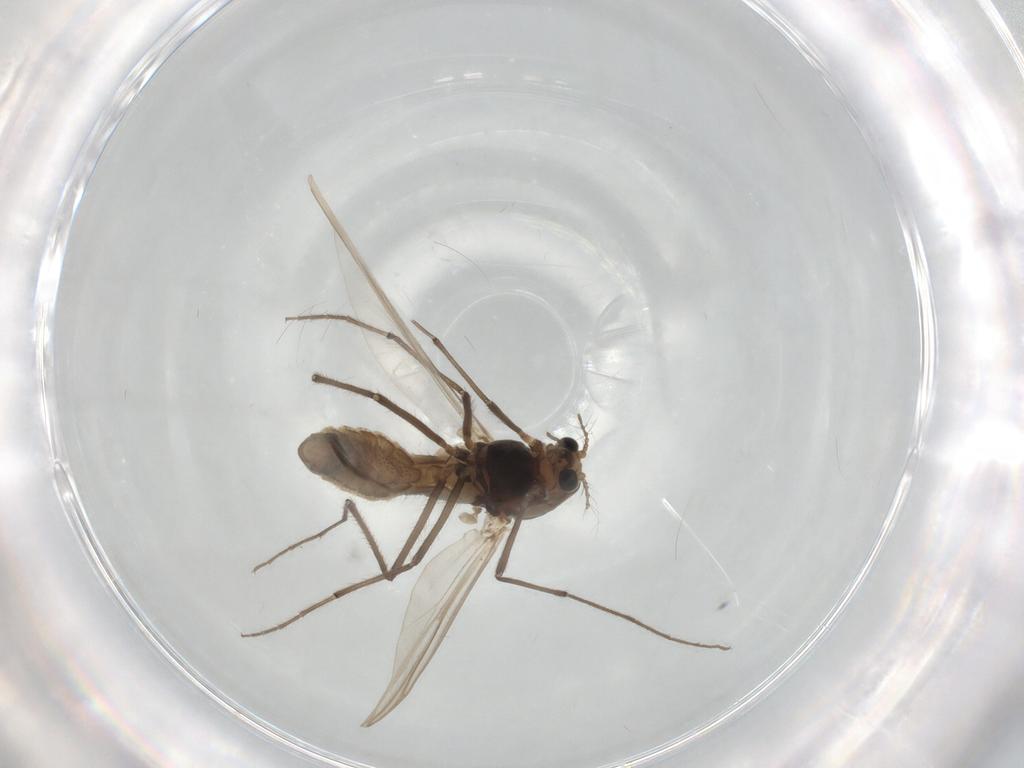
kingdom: Animalia
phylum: Arthropoda
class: Insecta
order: Diptera
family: Chironomidae
